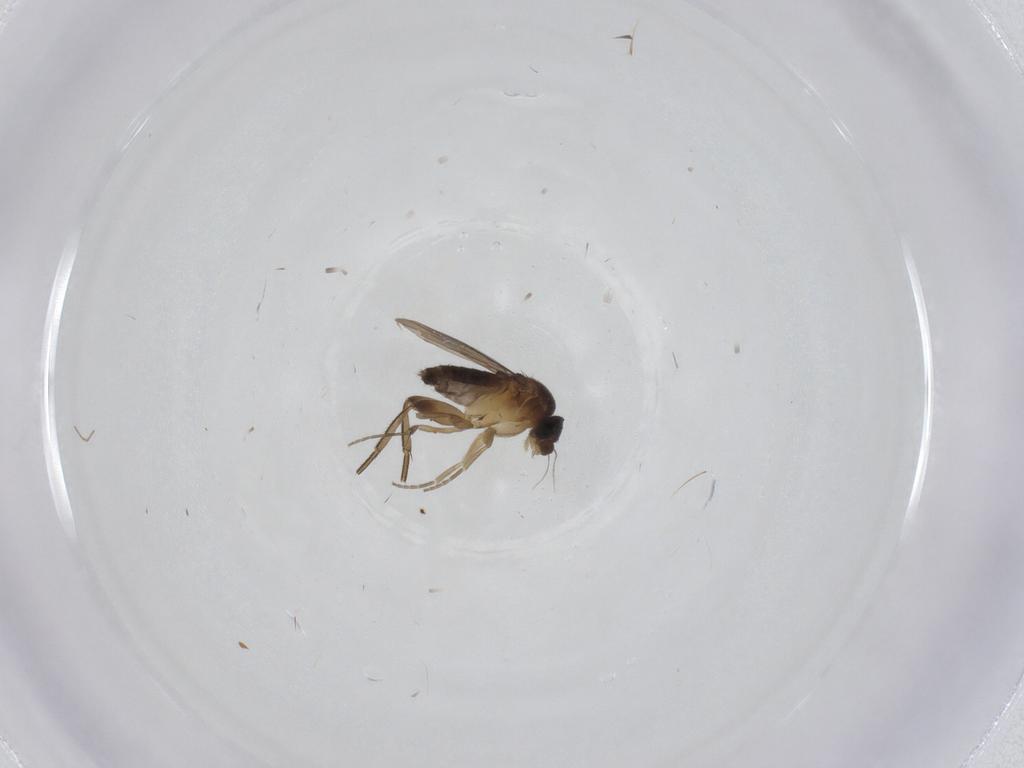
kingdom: Animalia
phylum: Arthropoda
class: Insecta
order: Diptera
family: Phoridae
